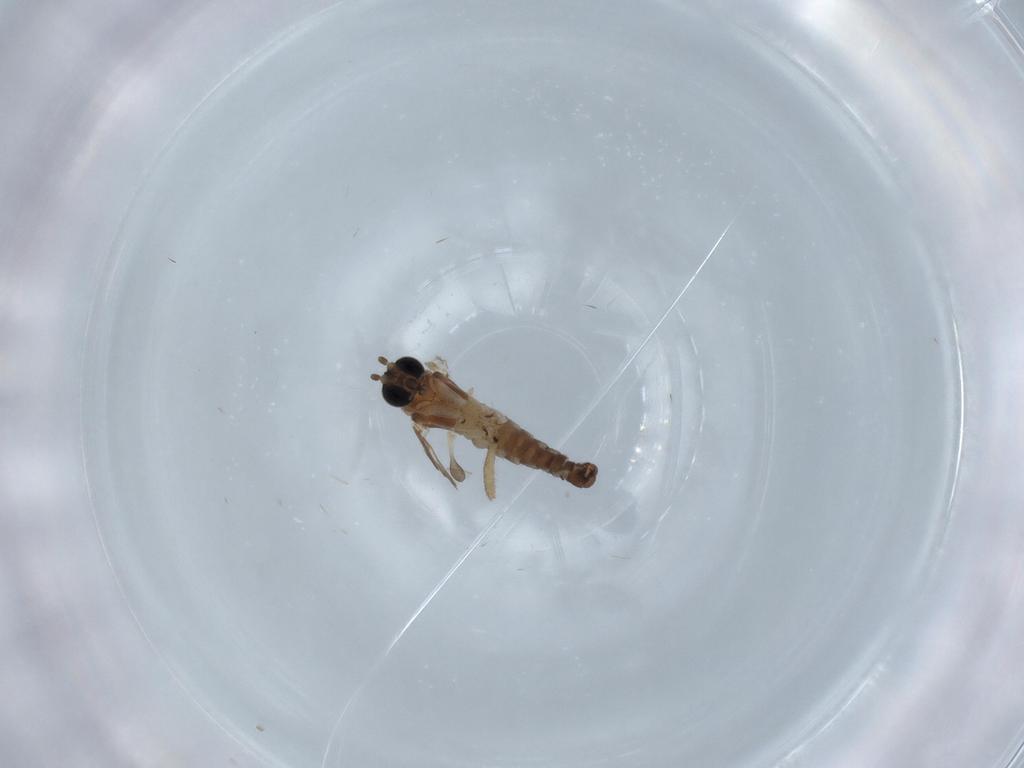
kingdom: Animalia
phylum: Arthropoda
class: Insecta
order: Diptera
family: Sciaridae
